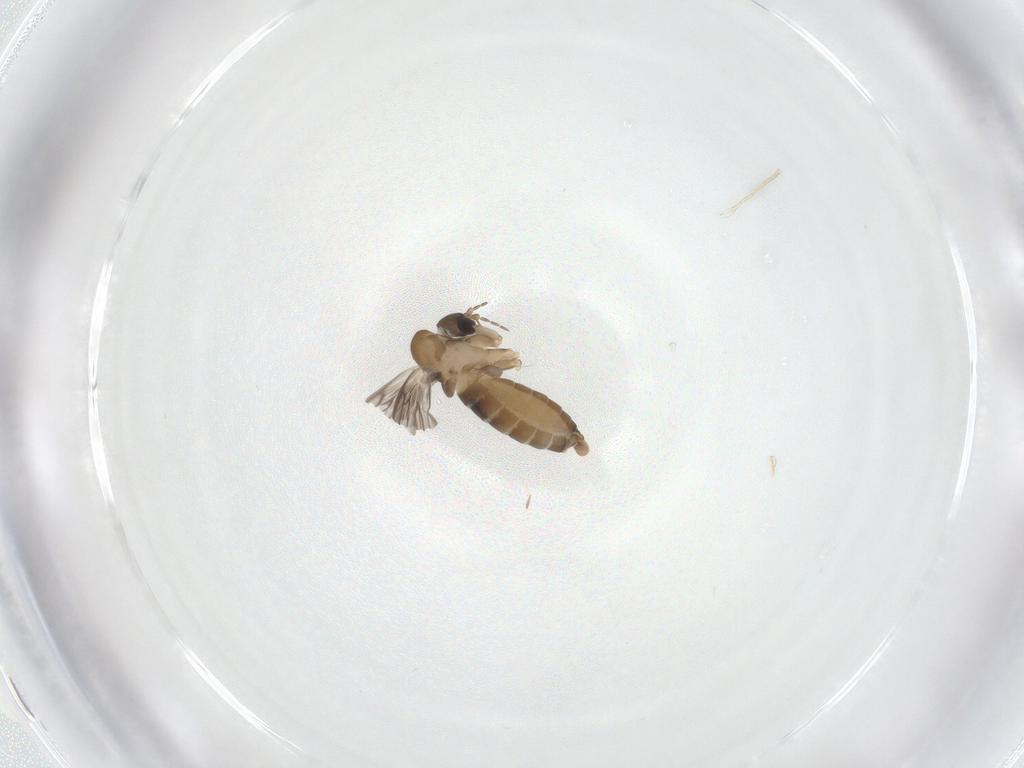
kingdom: Animalia
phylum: Arthropoda
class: Insecta
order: Diptera
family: Psychodidae
